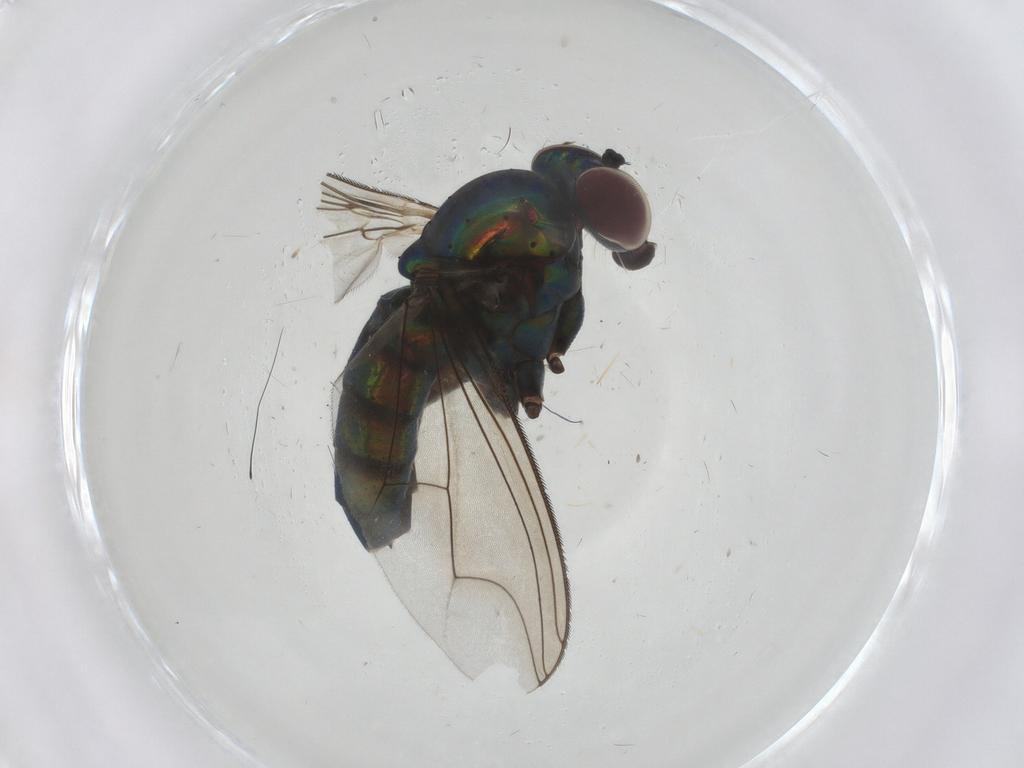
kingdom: Animalia
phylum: Arthropoda
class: Insecta
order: Diptera
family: Dolichopodidae
